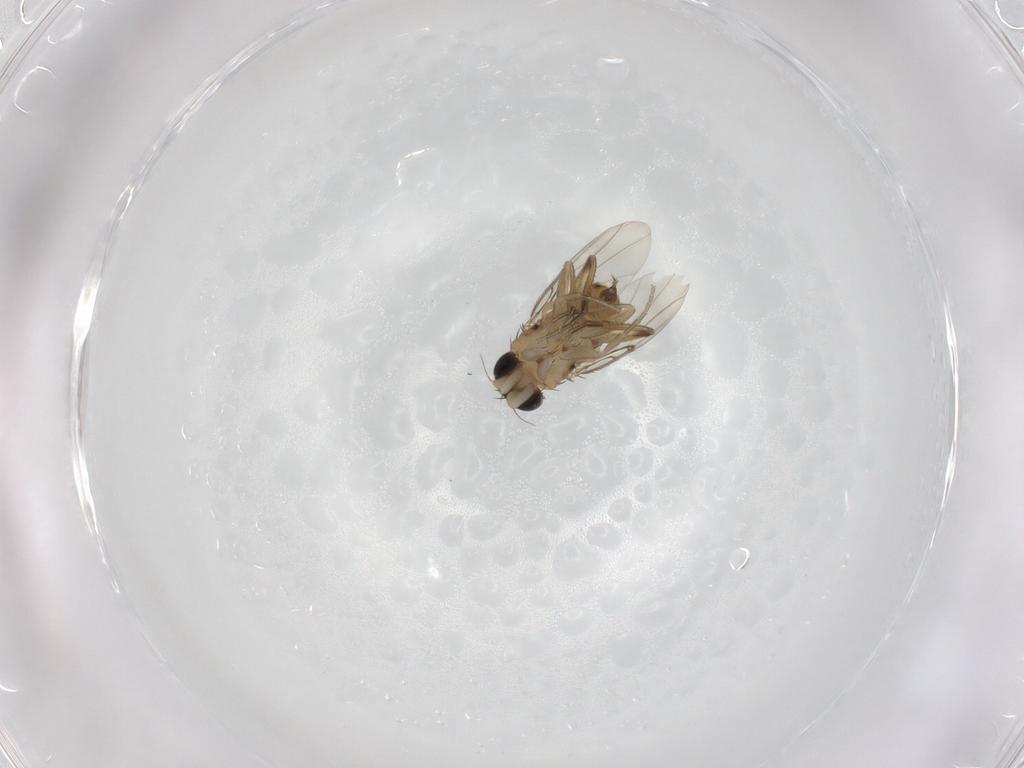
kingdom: Animalia
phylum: Arthropoda
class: Insecta
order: Diptera
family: Phoridae
